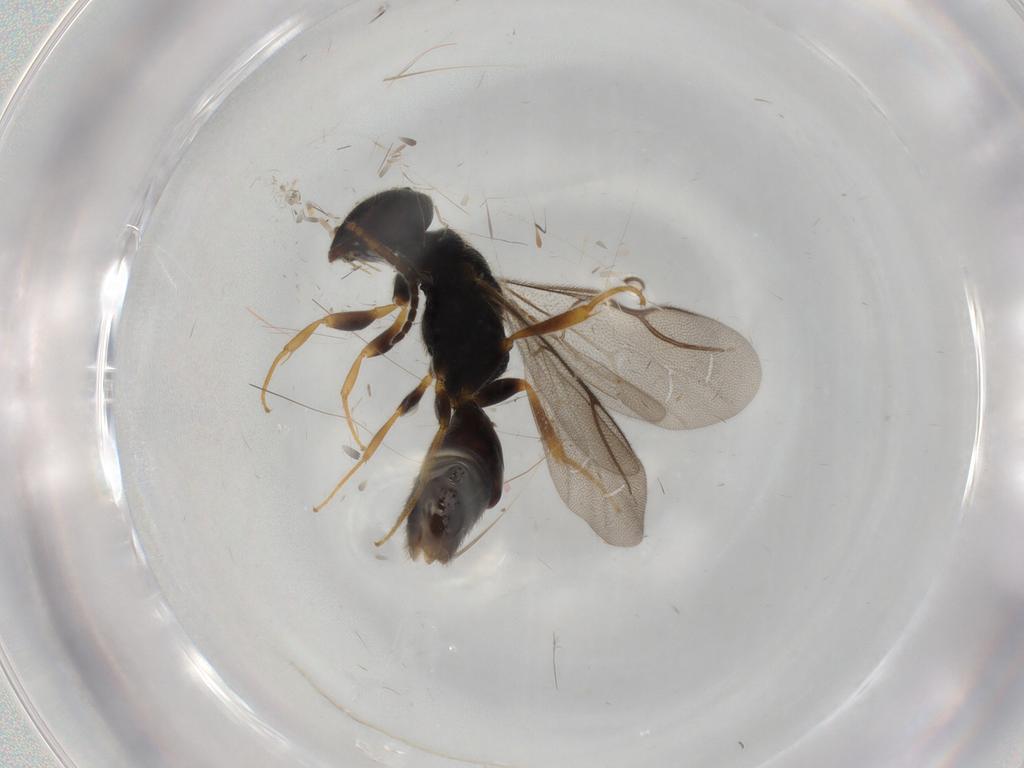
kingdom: Animalia
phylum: Arthropoda
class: Insecta
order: Hymenoptera
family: Bethylidae
